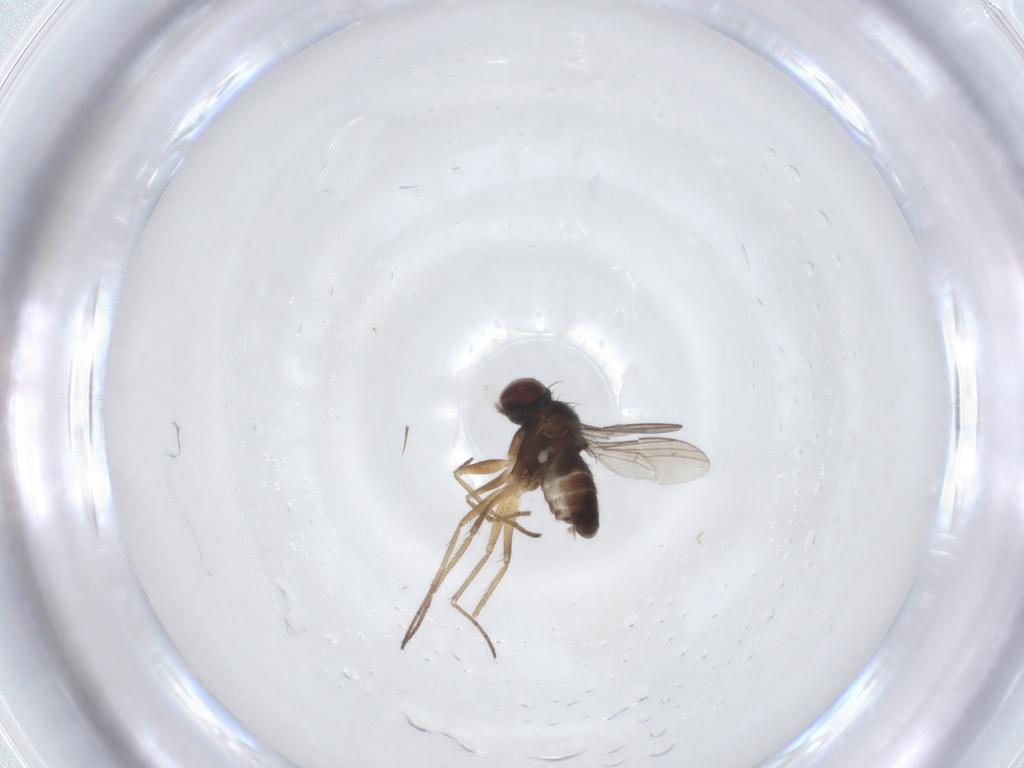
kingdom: Animalia
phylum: Arthropoda
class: Insecta
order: Diptera
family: Dolichopodidae
